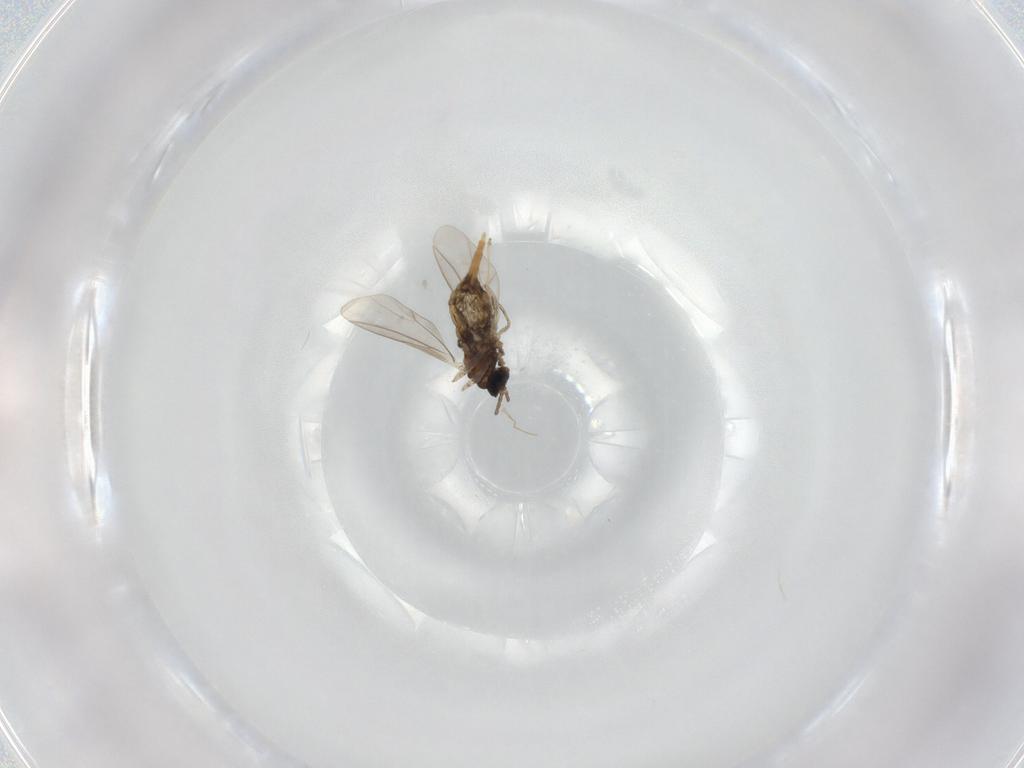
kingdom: Animalia
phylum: Arthropoda
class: Insecta
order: Diptera
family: Cecidomyiidae
